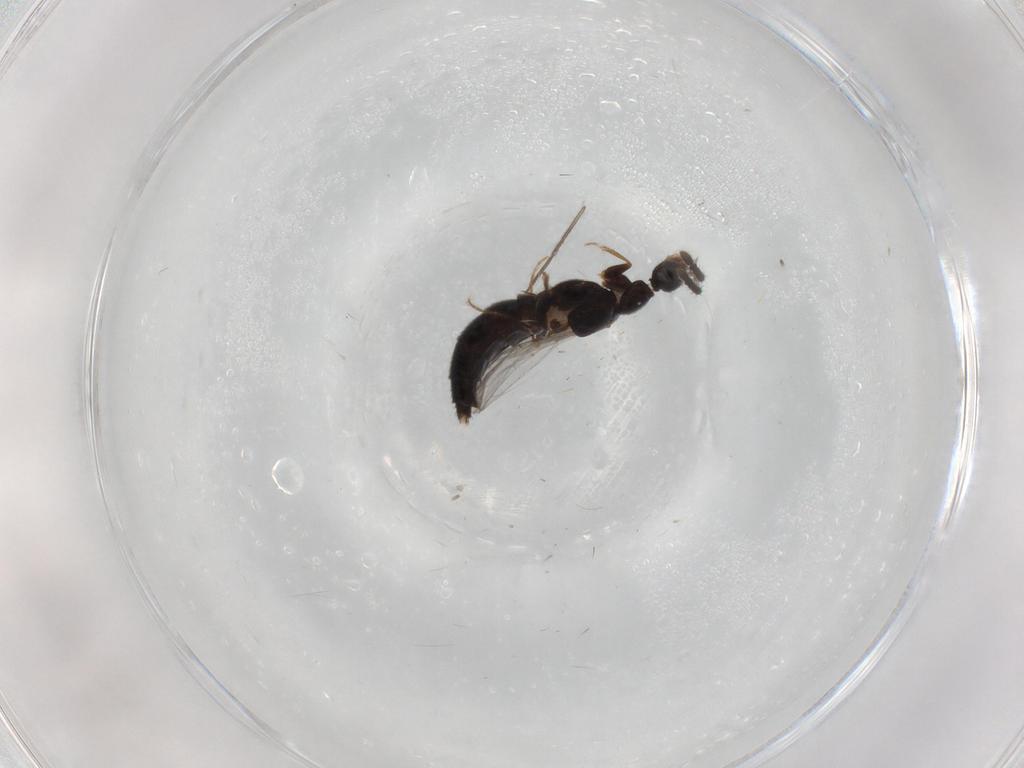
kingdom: Animalia
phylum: Arthropoda
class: Insecta
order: Coleoptera
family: Staphylinidae
